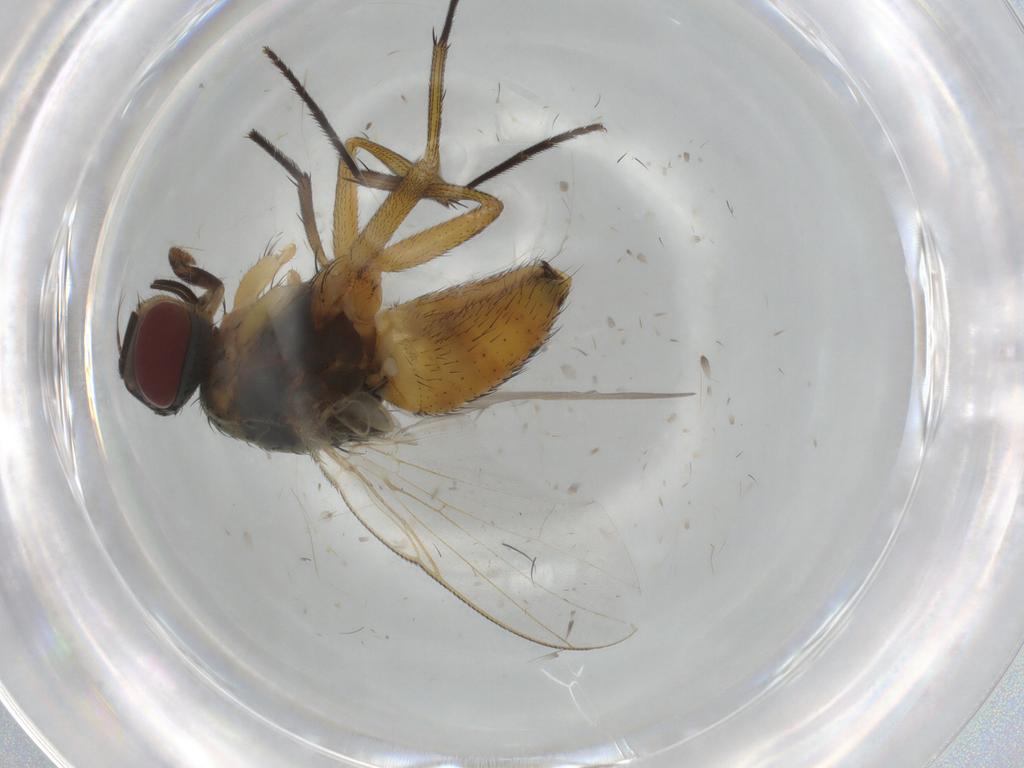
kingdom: Animalia
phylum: Arthropoda
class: Insecta
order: Diptera
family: Muscidae
